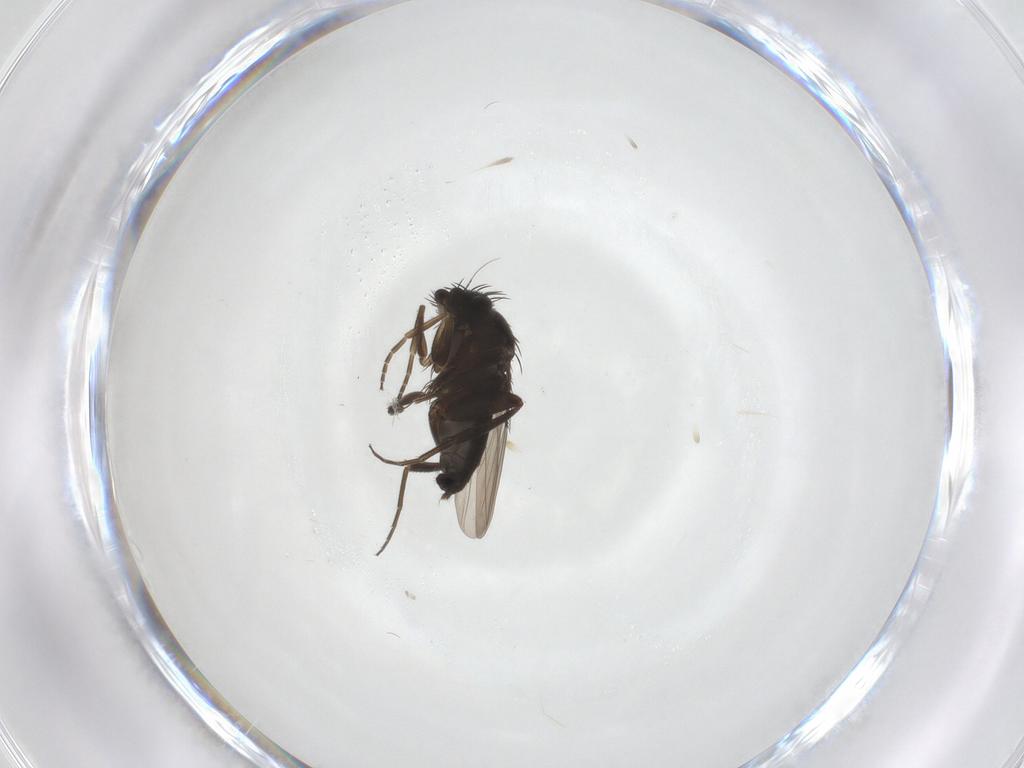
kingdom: Animalia
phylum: Arthropoda
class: Insecta
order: Diptera
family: Phoridae
